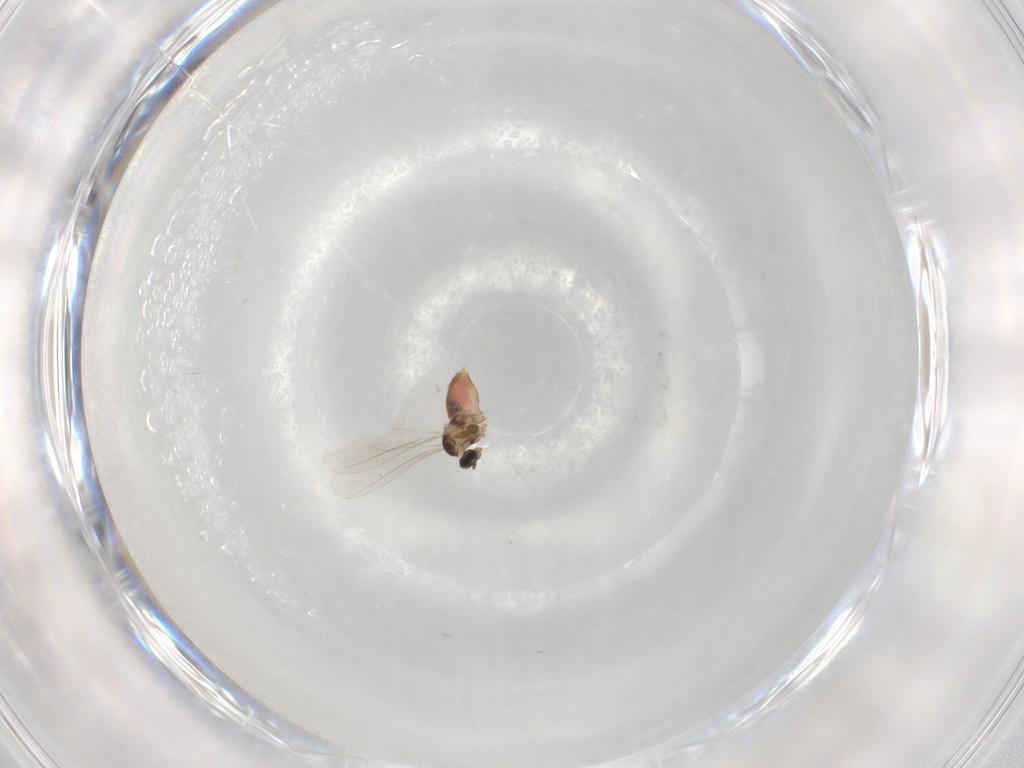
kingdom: Animalia
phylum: Arthropoda
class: Insecta
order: Diptera
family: Cecidomyiidae
